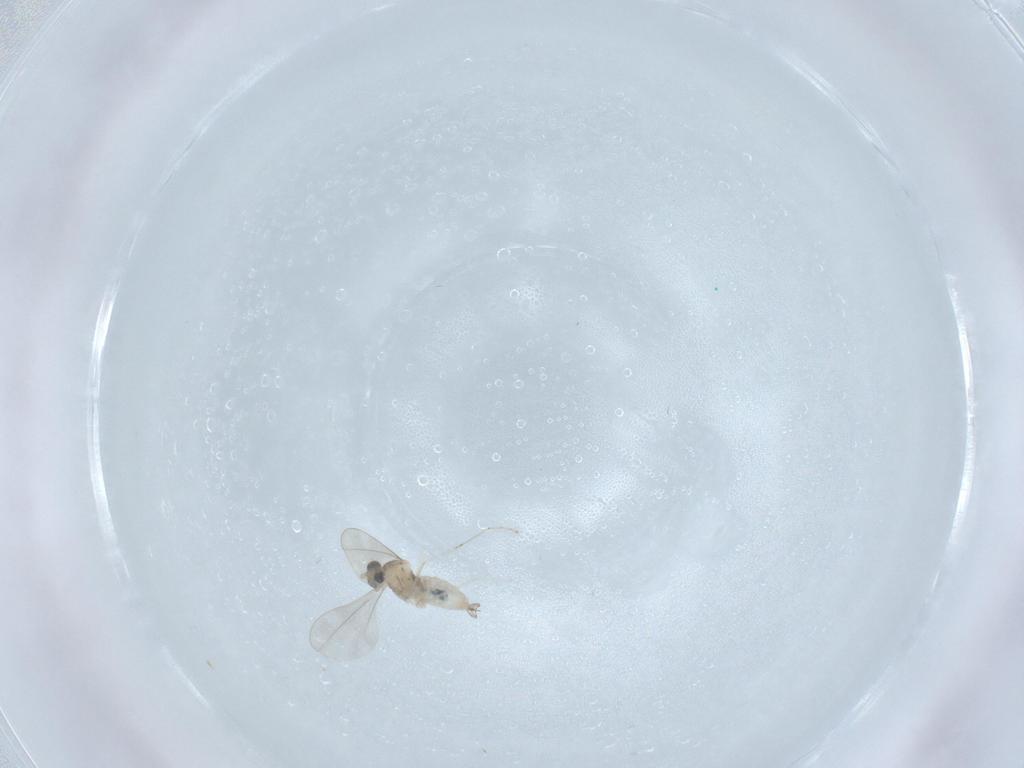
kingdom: Animalia
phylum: Arthropoda
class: Insecta
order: Diptera
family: Cecidomyiidae
